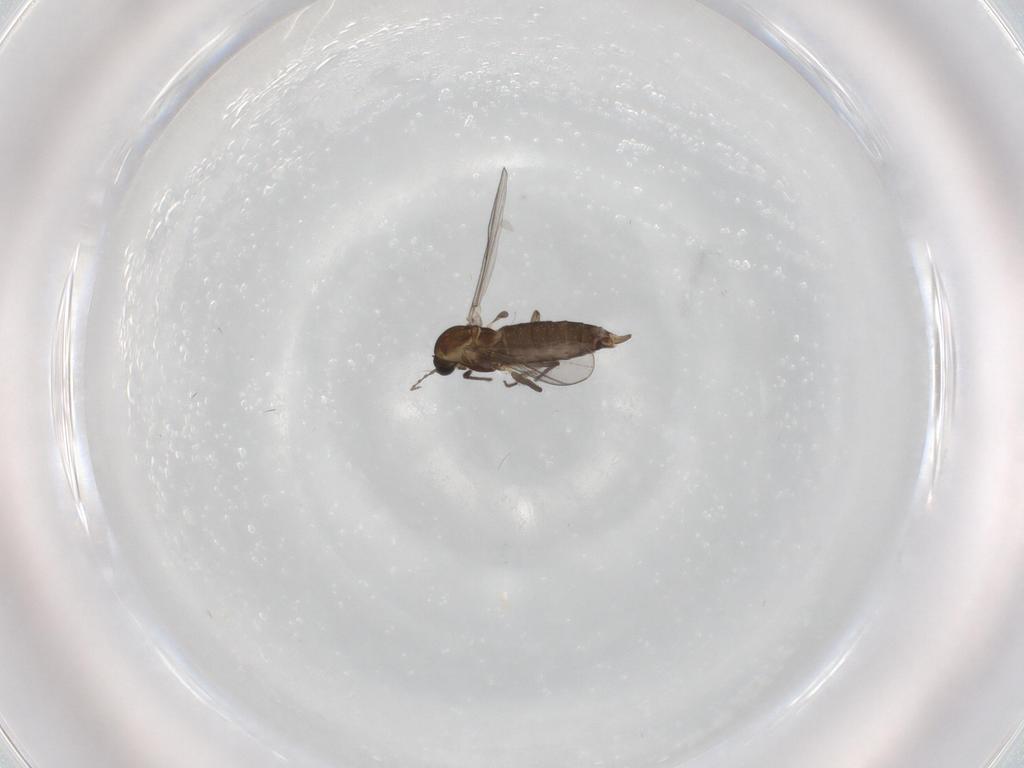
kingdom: Animalia
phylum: Arthropoda
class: Insecta
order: Diptera
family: Chironomidae
